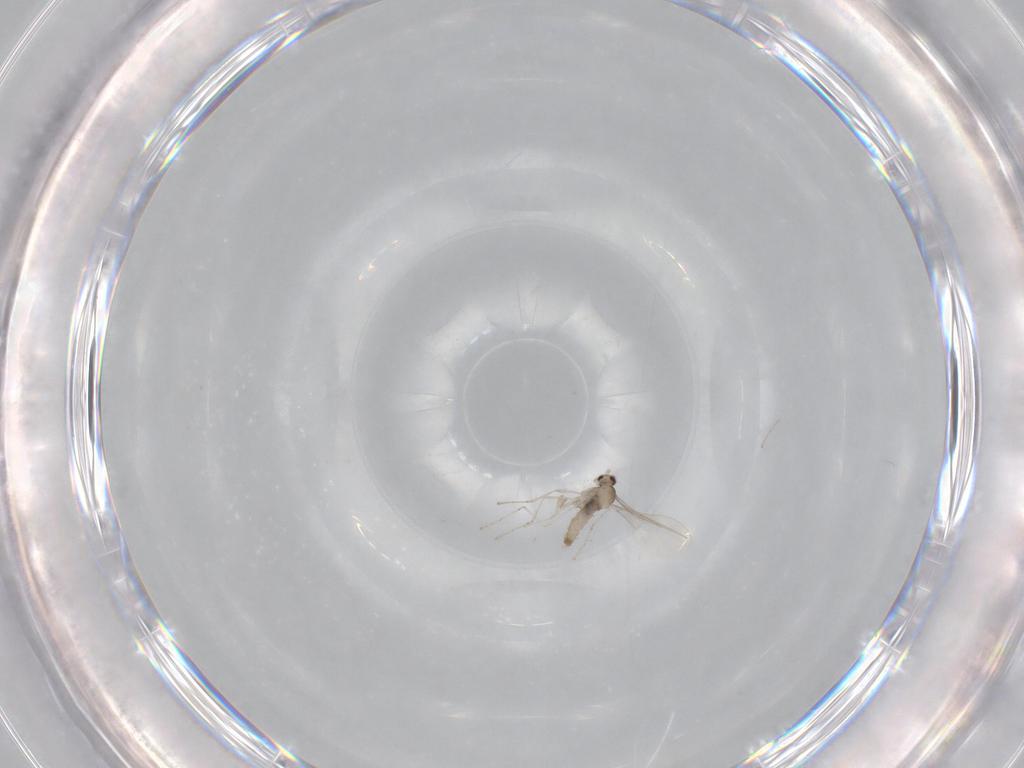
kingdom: Animalia
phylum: Arthropoda
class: Insecta
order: Diptera
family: Cecidomyiidae
